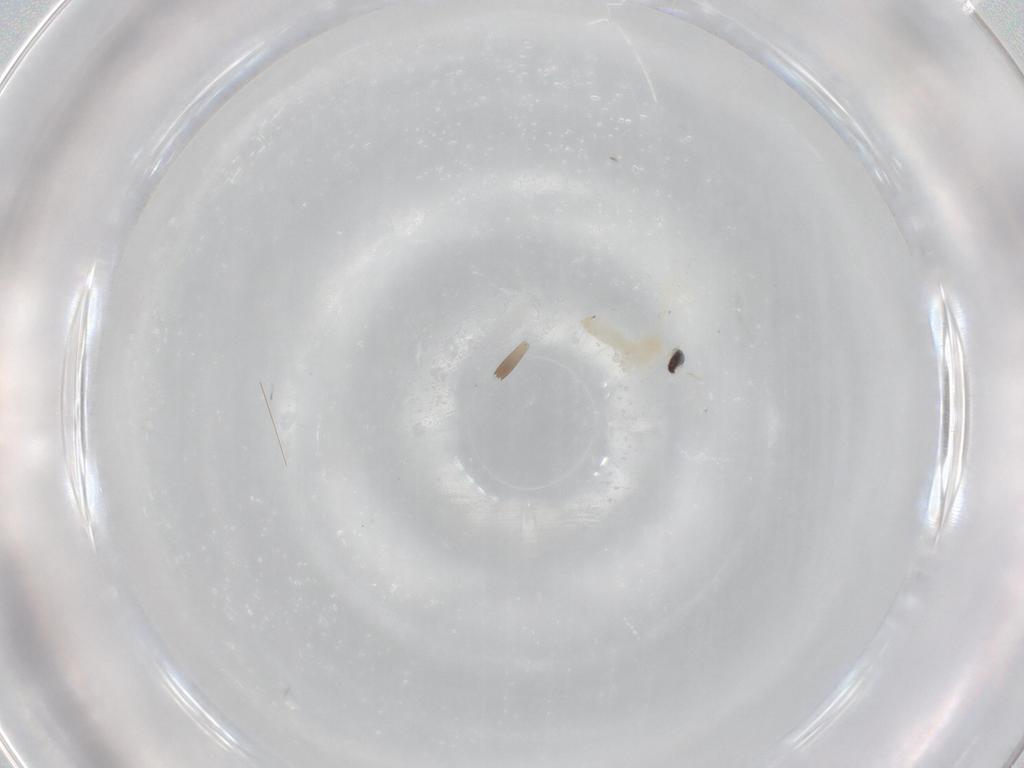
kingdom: Animalia
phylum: Arthropoda
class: Insecta
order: Diptera
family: Cecidomyiidae
